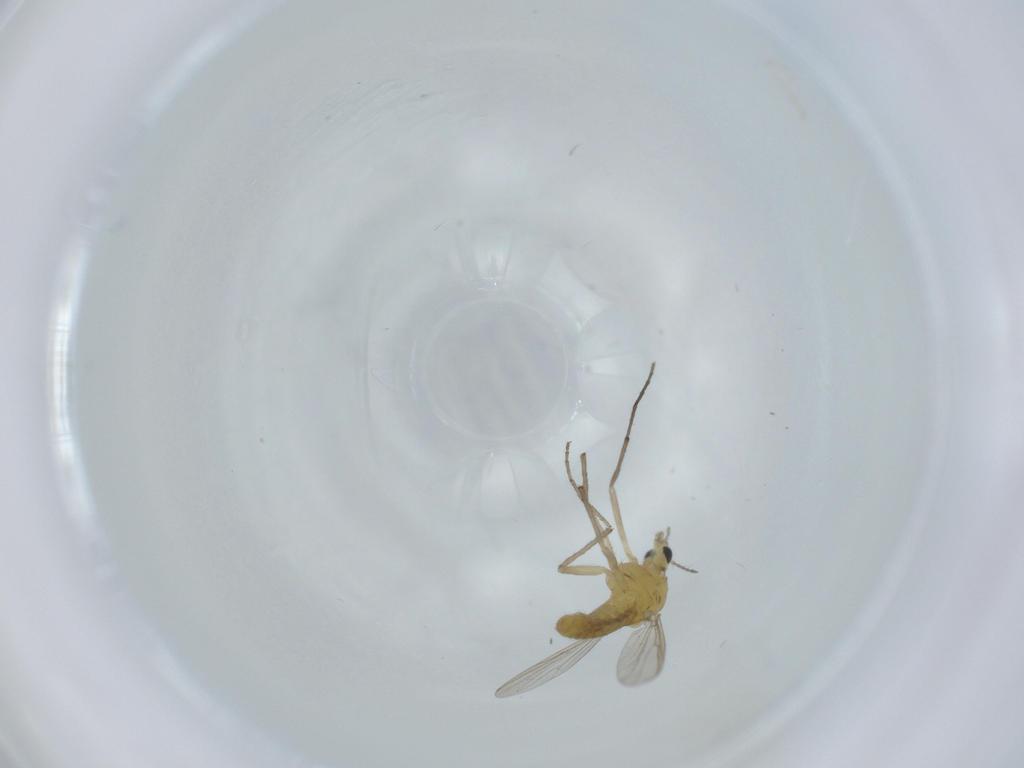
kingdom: Animalia
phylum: Arthropoda
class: Insecta
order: Diptera
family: Chironomidae
